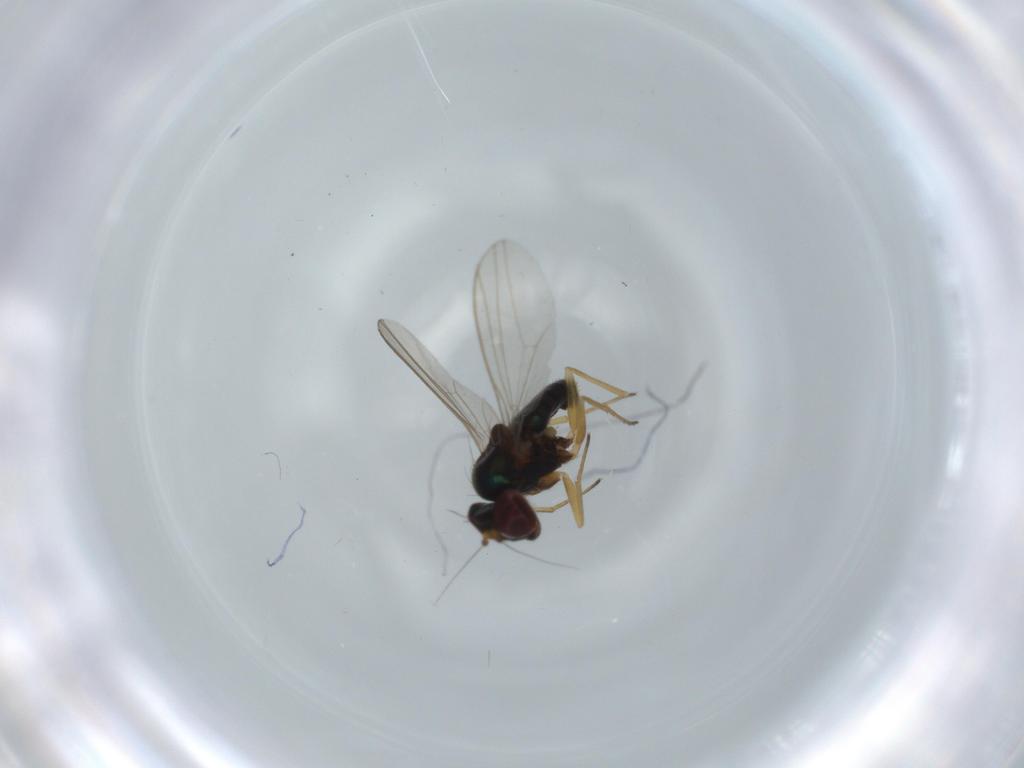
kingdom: Animalia
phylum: Arthropoda
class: Insecta
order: Diptera
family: Dolichopodidae
